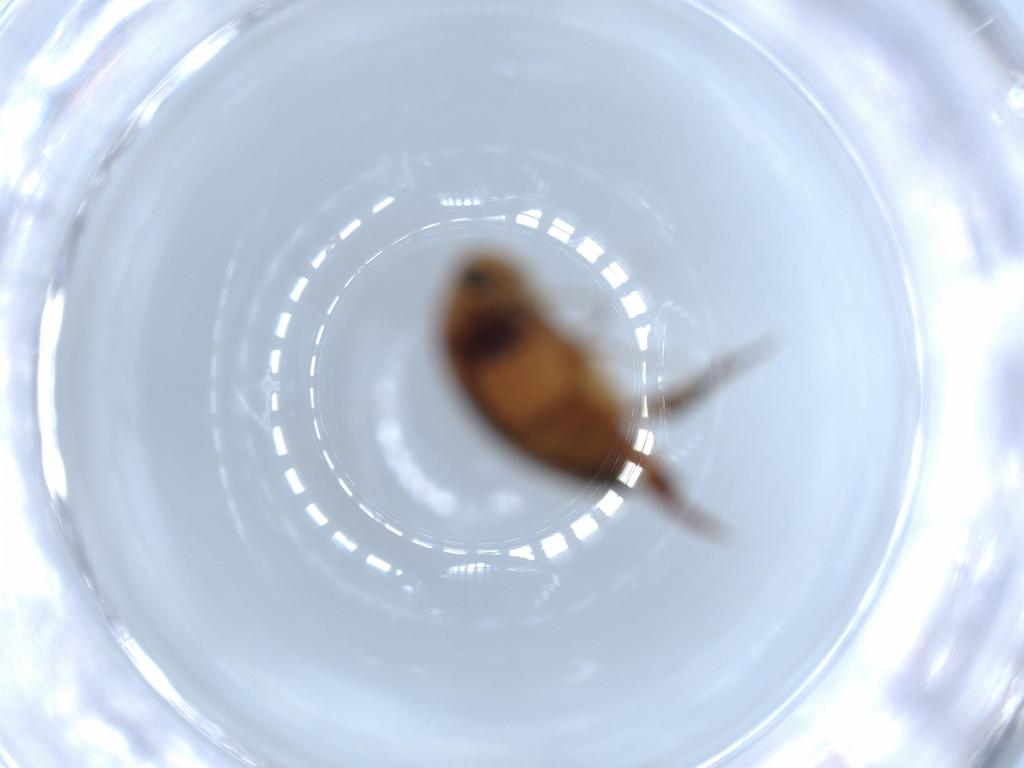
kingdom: Animalia
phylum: Arthropoda
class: Insecta
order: Coleoptera
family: Mordellidae
